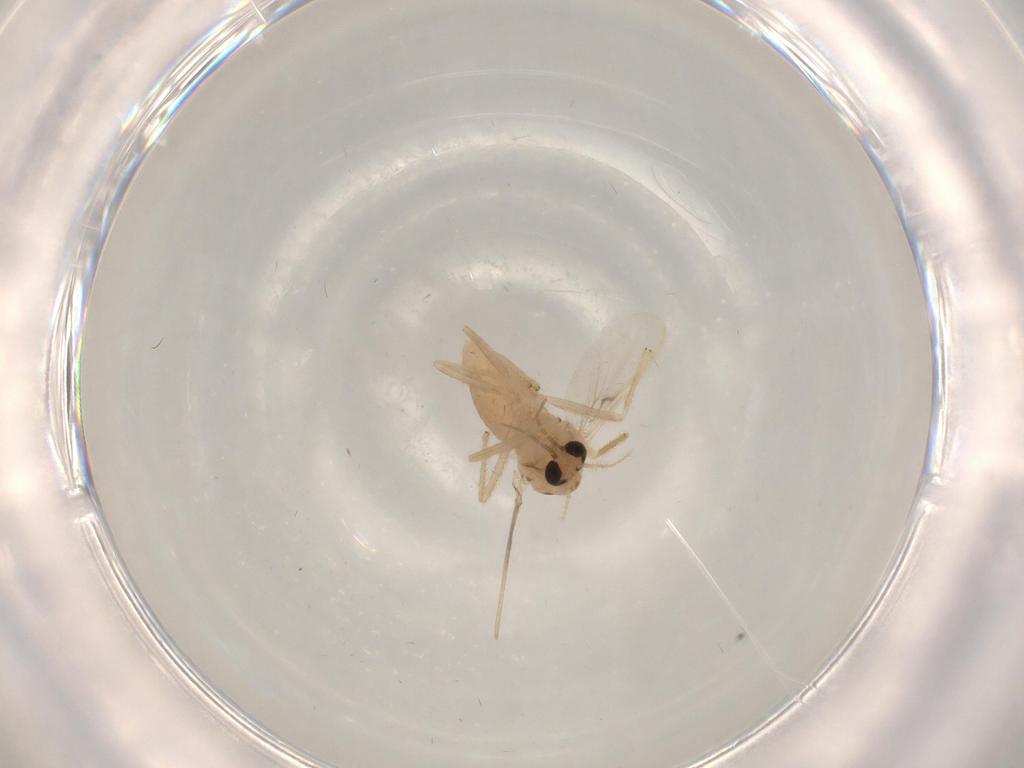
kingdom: Animalia
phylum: Arthropoda
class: Insecta
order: Diptera
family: Chironomidae
